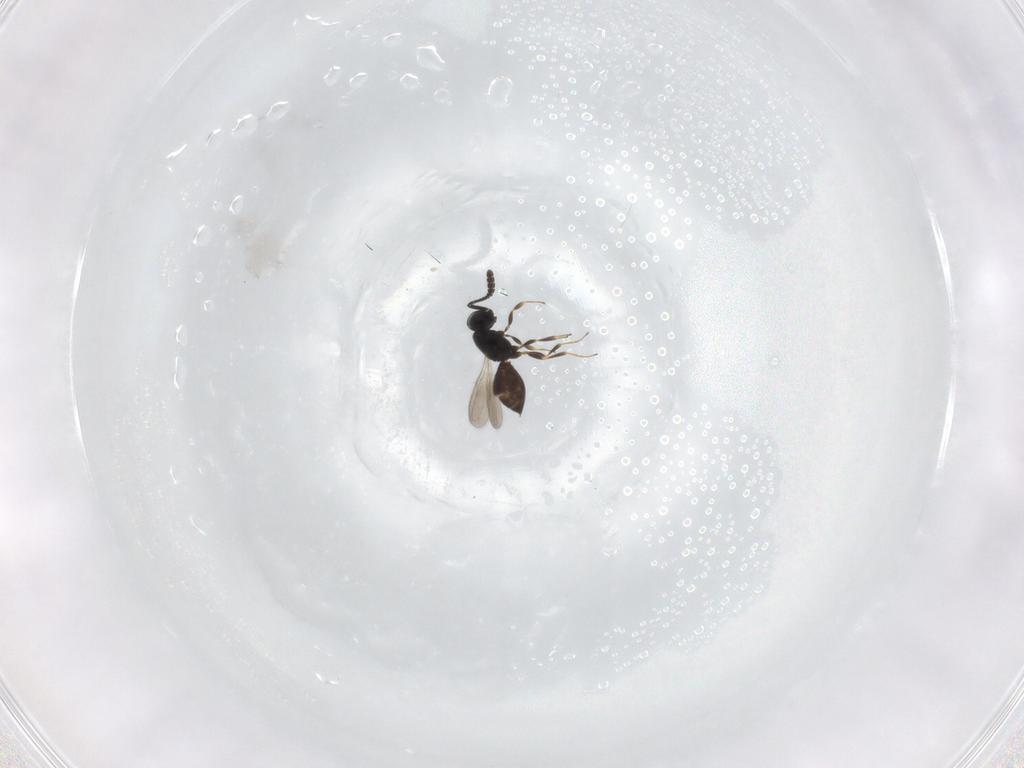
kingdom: Animalia
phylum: Arthropoda
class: Insecta
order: Hymenoptera
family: Scelionidae
